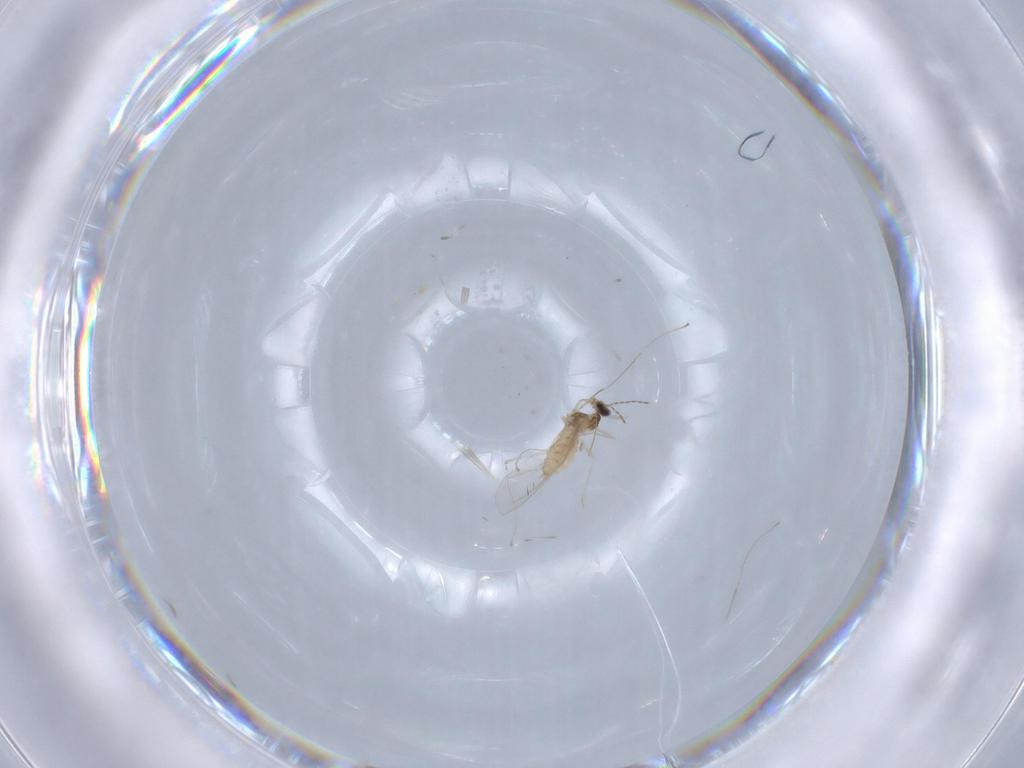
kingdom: Animalia
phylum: Arthropoda
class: Insecta
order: Diptera
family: Cecidomyiidae
